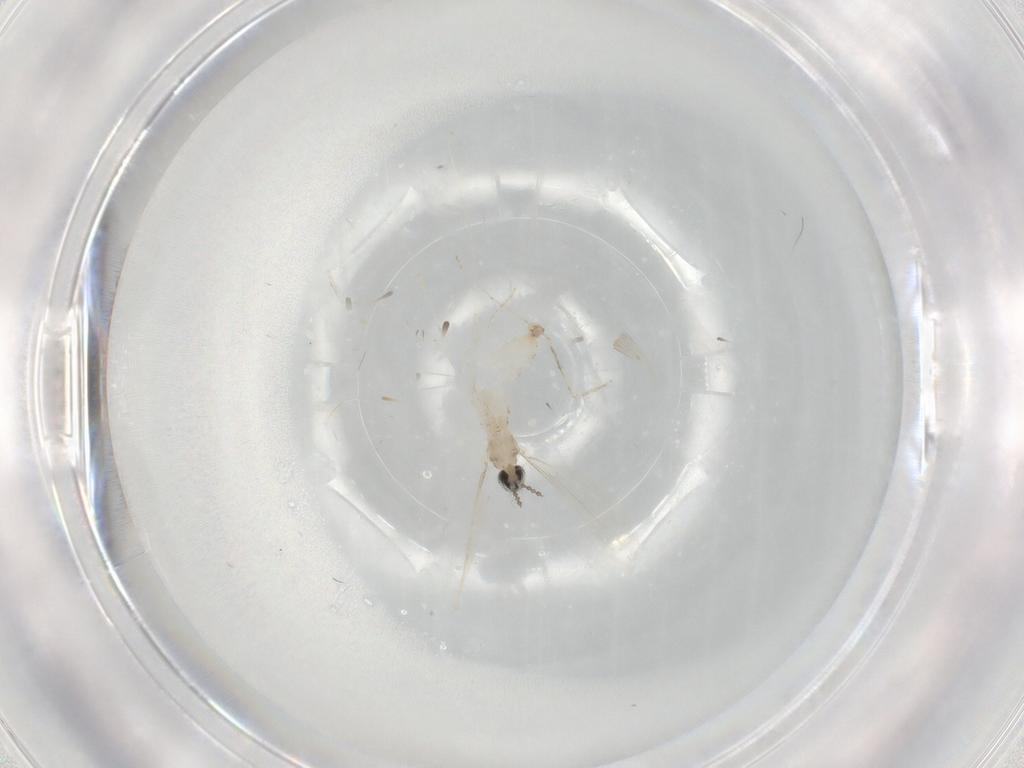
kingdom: Animalia
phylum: Arthropoda
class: Insecta
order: Diptera
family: Cecidomyiidae
